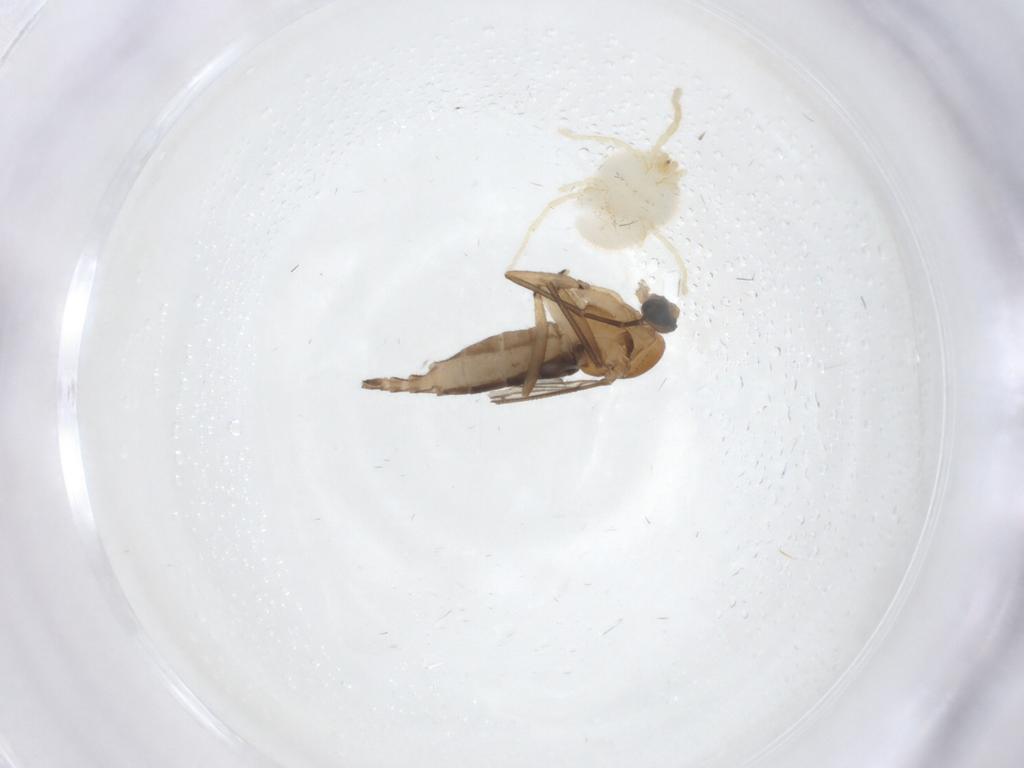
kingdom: Animalia
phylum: Arthropoda
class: Insecta
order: Diptera
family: Sciaridae
